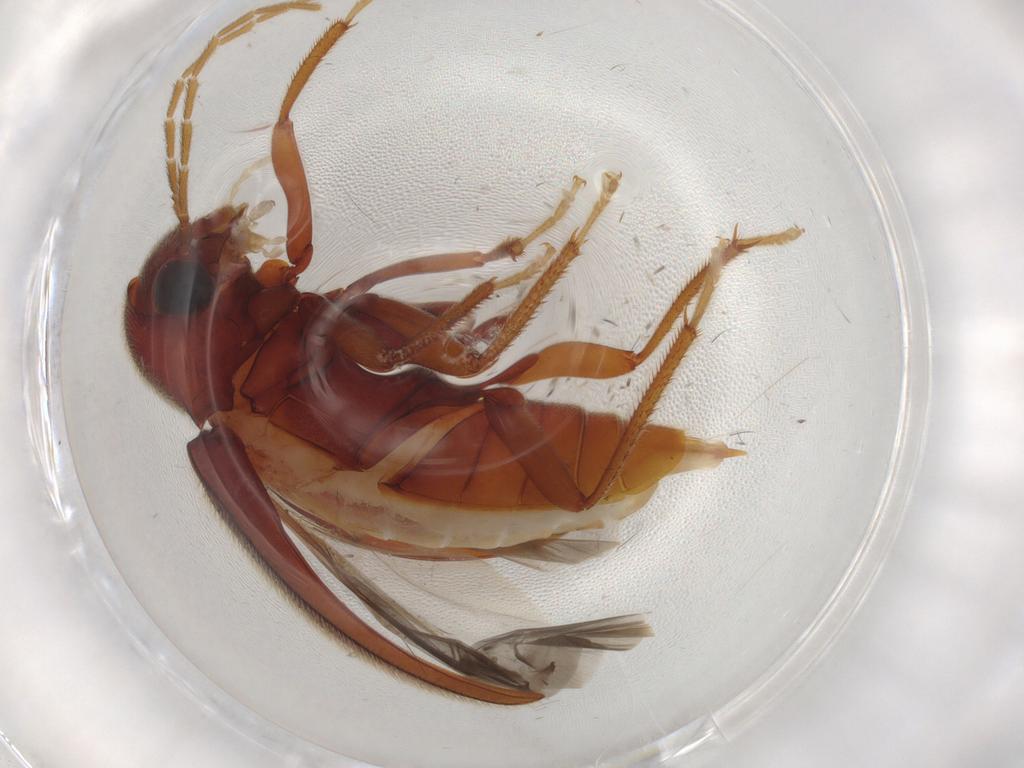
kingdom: Animalia
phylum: Arthropoda
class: Insecta
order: Coleoptera
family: Ptilodactylidae
